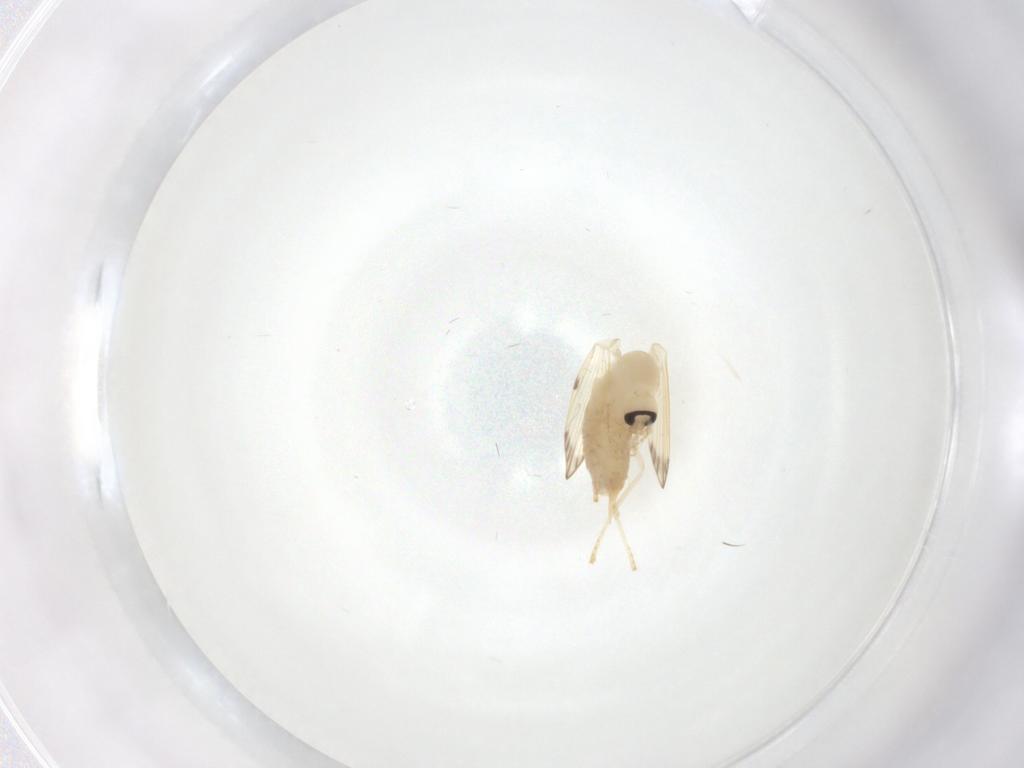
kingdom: Animalia
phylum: Arthropoda
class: Insecta
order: Diptera
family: Psychodidae
